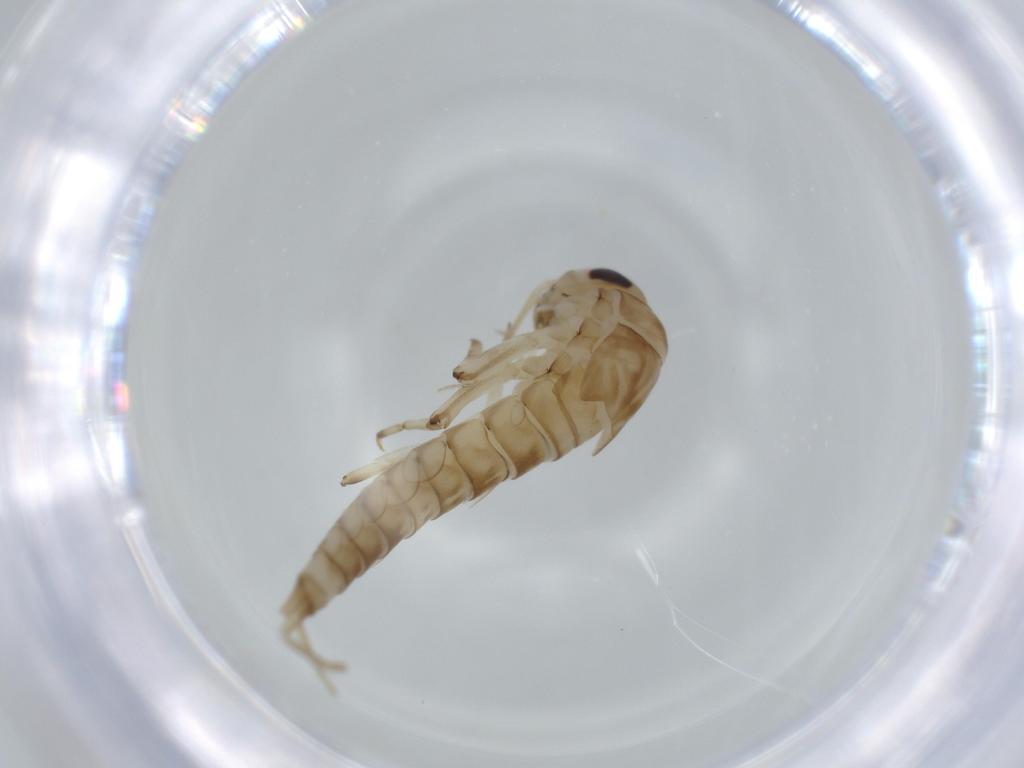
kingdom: Animalia
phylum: Arthropoda
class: Insecta
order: Ephemeroptera
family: Baetidae
